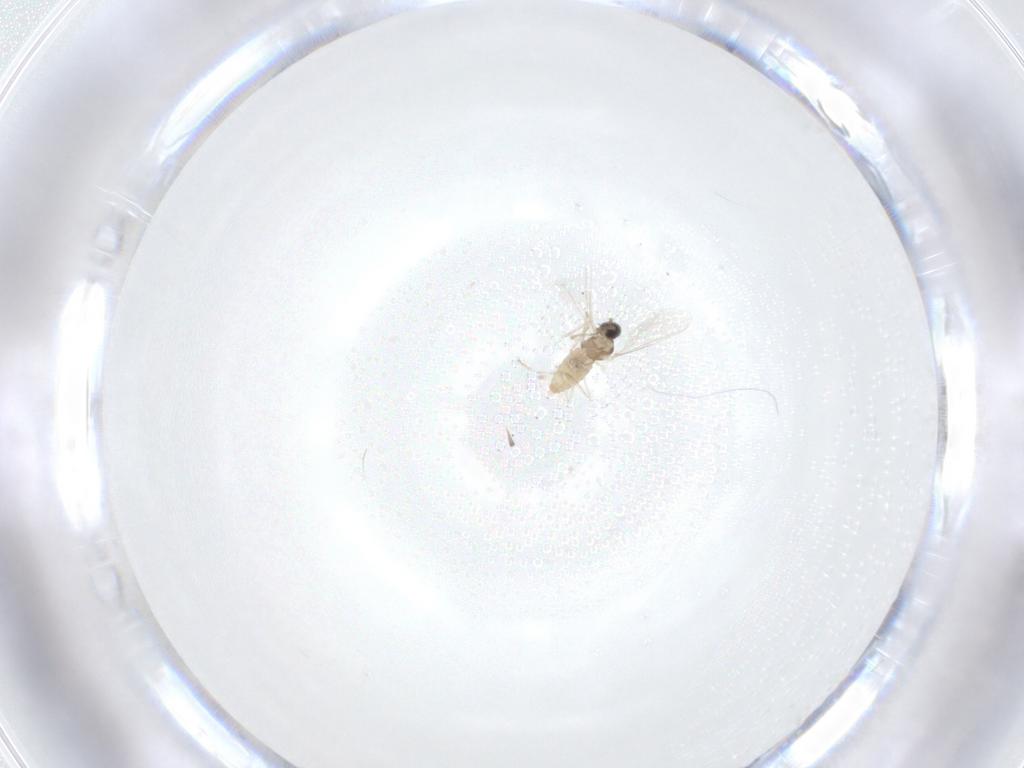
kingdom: Animalia
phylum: Arthropoda
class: Insecta
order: Diptera
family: Cecidomyiidae
